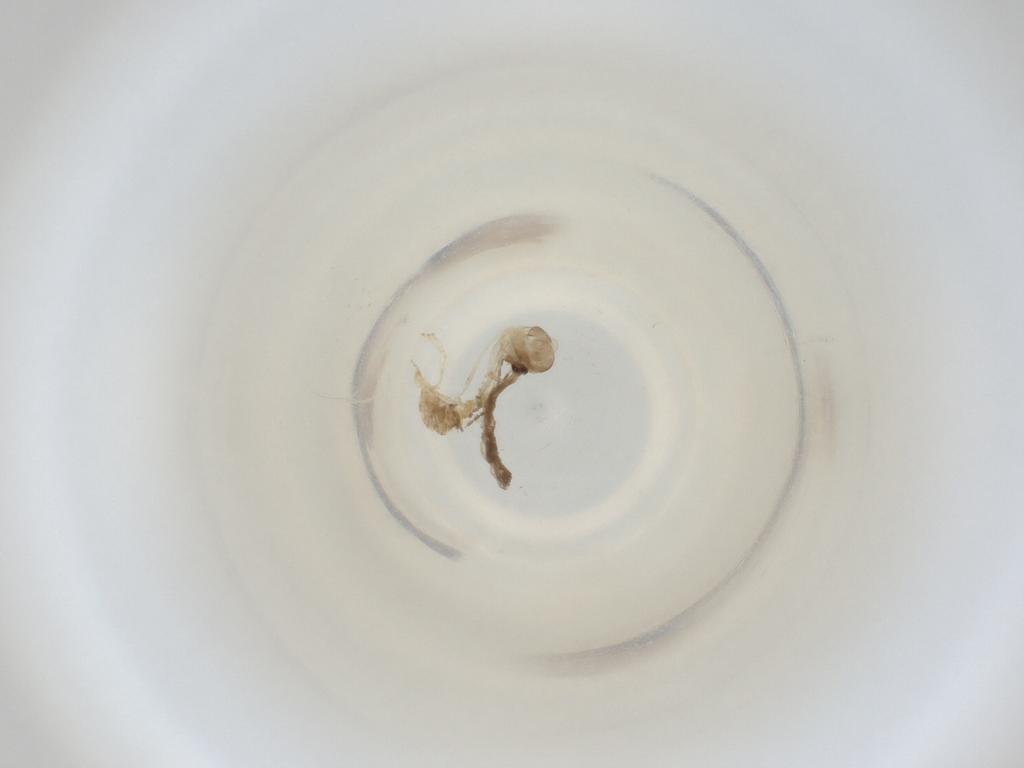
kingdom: Animalia
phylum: Arthropoda
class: Insecta
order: Diptera
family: Cecidomyiidae
